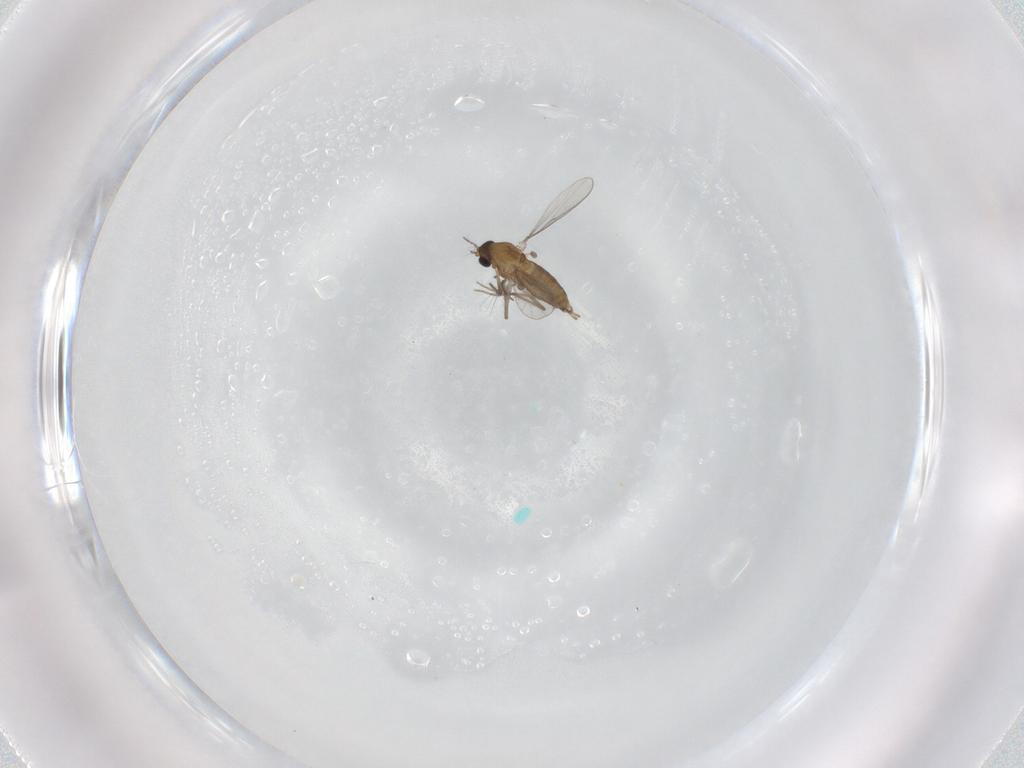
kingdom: Animalia
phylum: Arthropoda
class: Insecta
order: Diptera
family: Chironomidae
